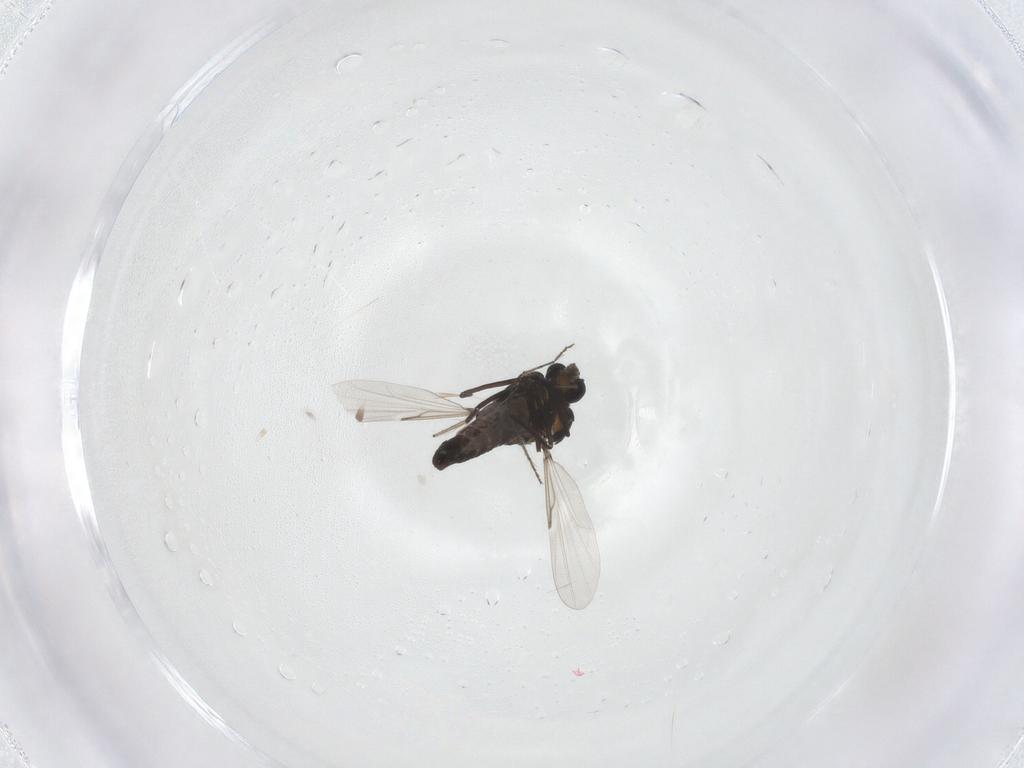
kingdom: Animalia
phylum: Arthropoda
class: Insecta
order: Diptera
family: Ceratopogonidae
